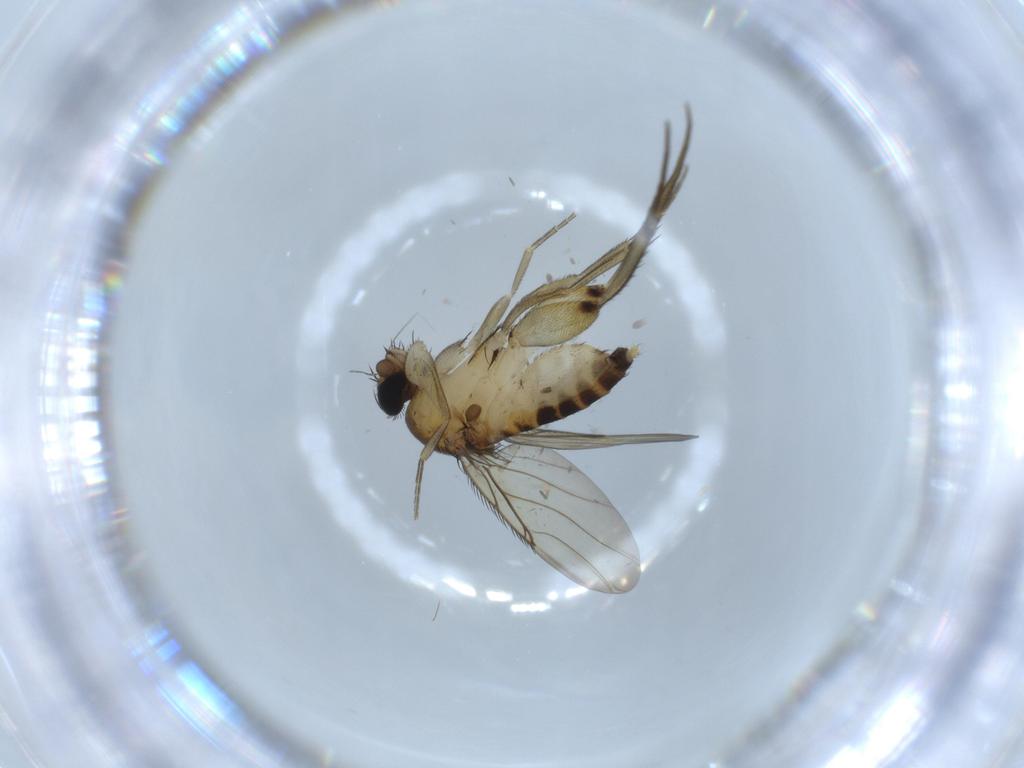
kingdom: Animalia
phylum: Arthropoda
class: Insecta
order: Diptera
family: Phoridae
